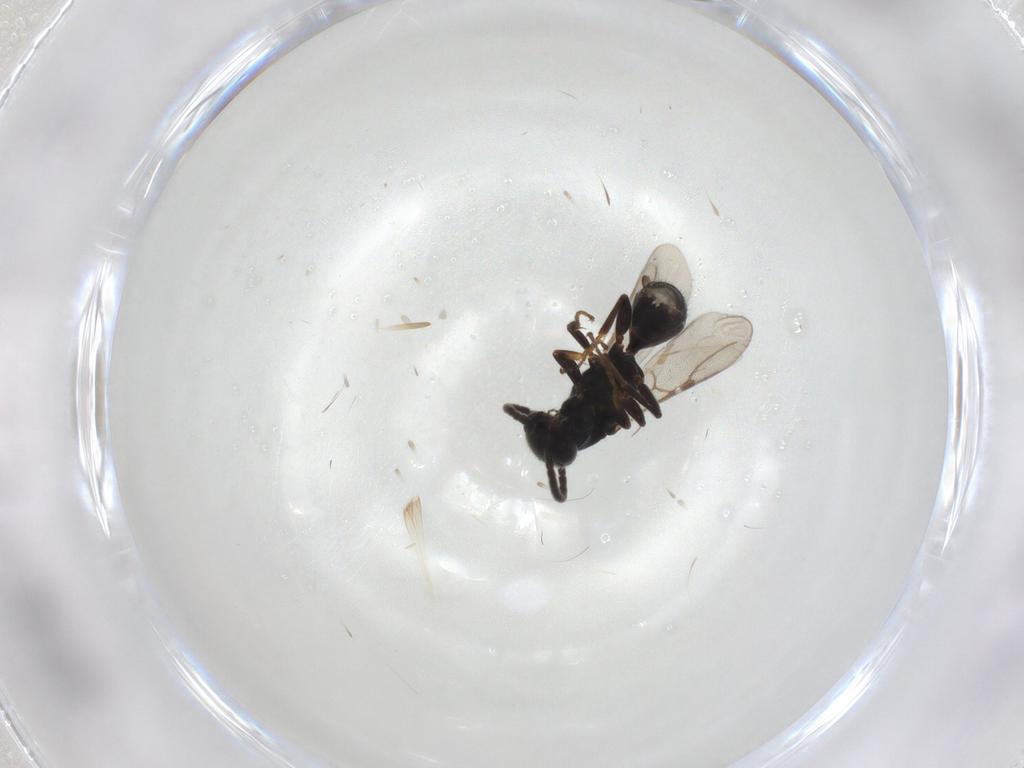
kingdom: Animalia
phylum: Arthropoda
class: Insecta
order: Hymenoptera
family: Bethylidae
